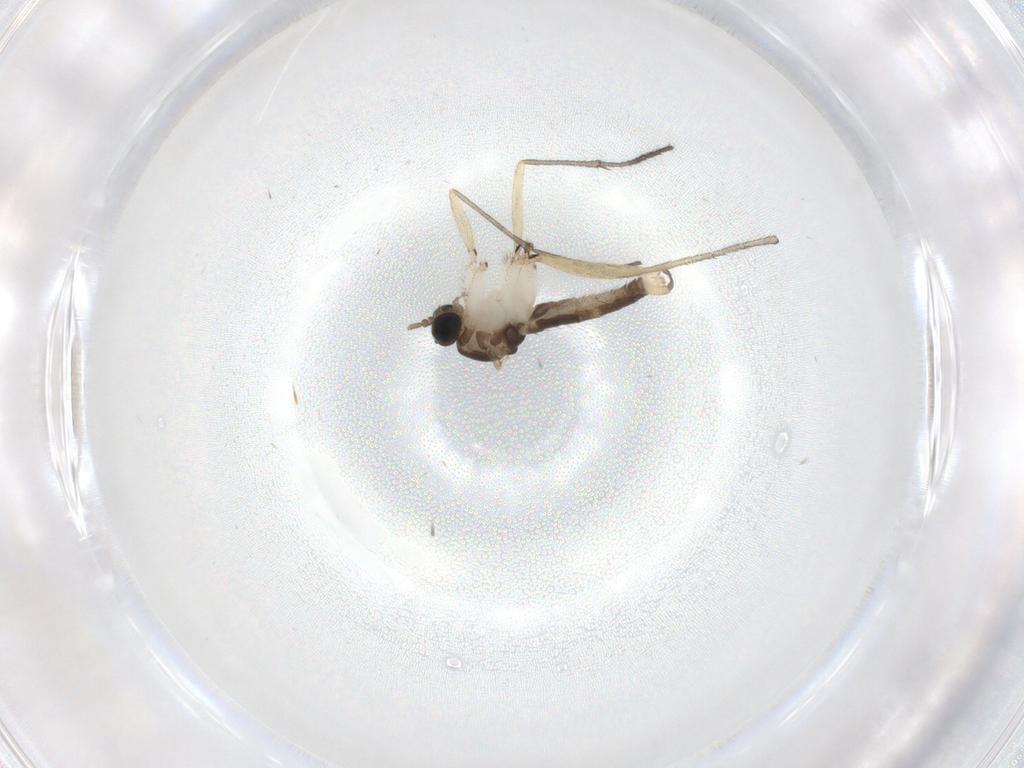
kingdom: Animalia
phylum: Arthropoda
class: Insecta
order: Diptera
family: Sciaridae
